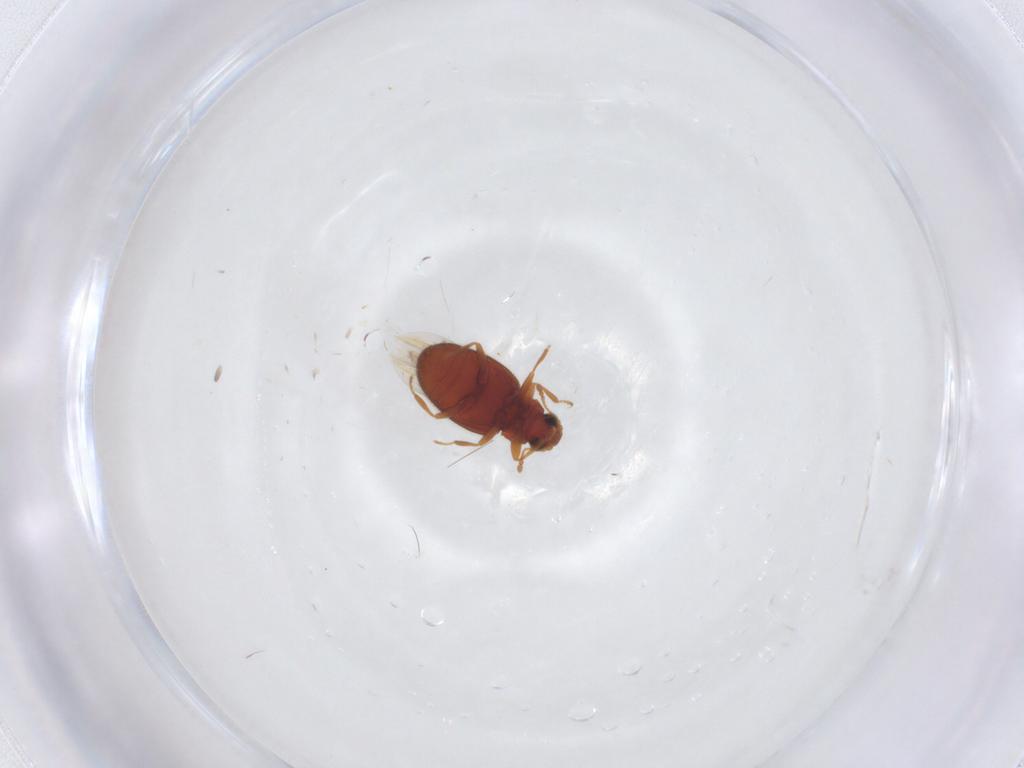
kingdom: Animalia
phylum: Arthropoda
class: Insecta
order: Coleoptera
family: Latridiidae
